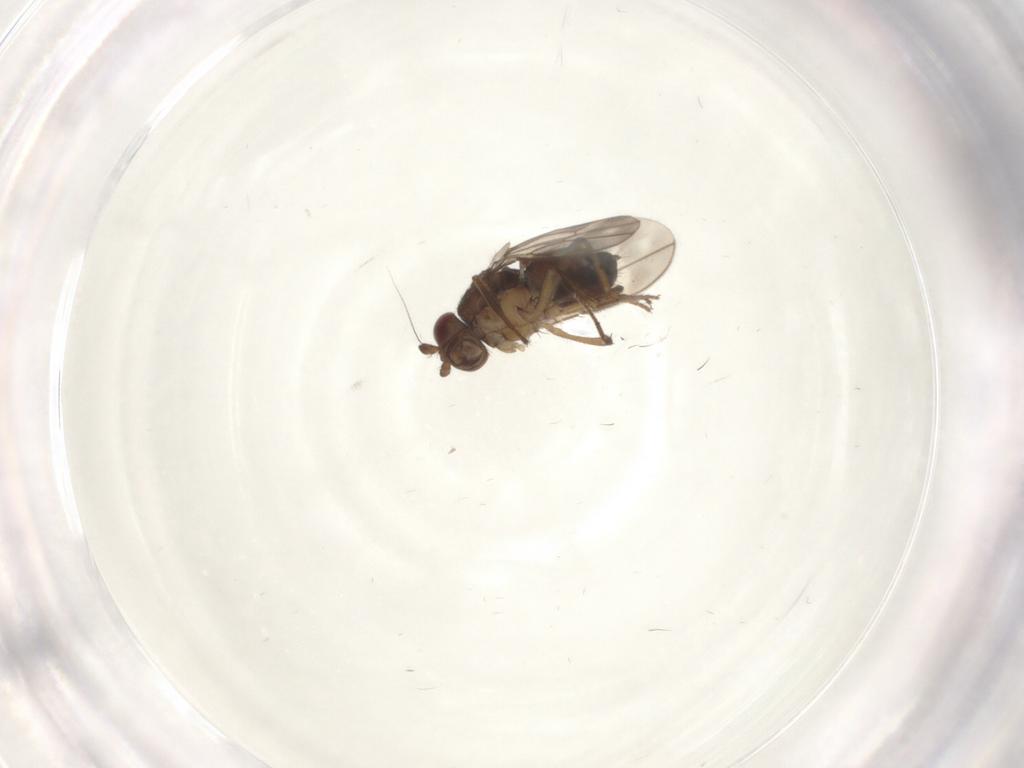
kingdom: Animalia
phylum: Arthropoda
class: Insecta
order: Diptera
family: Sphaeroceridae
